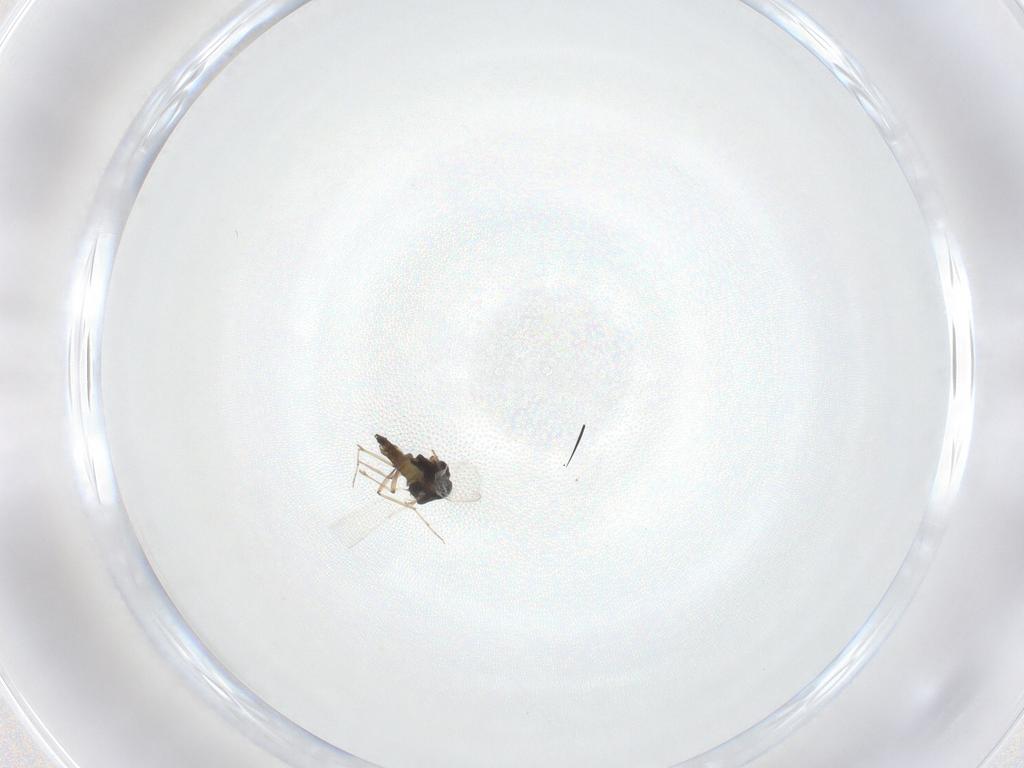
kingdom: Animalia
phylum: Arthropoda
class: Insecta
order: Diptera
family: Chironomidae
